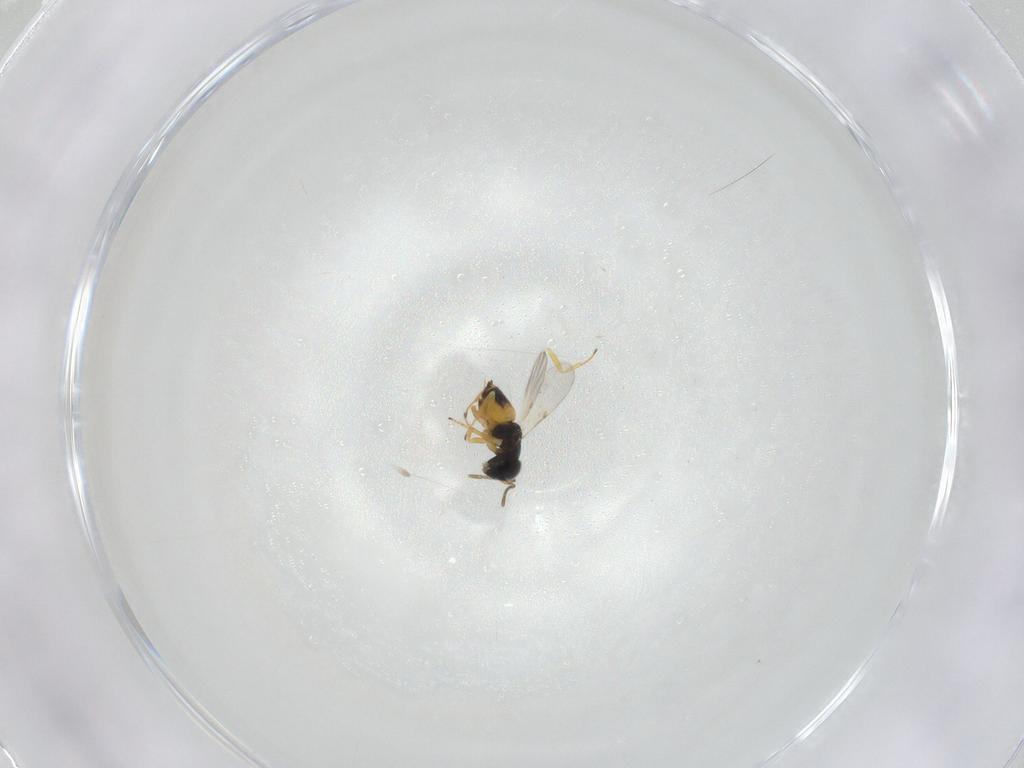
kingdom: Animalia
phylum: Arthropoda
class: Insecta
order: Hymenoptera
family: Encyrtidae
